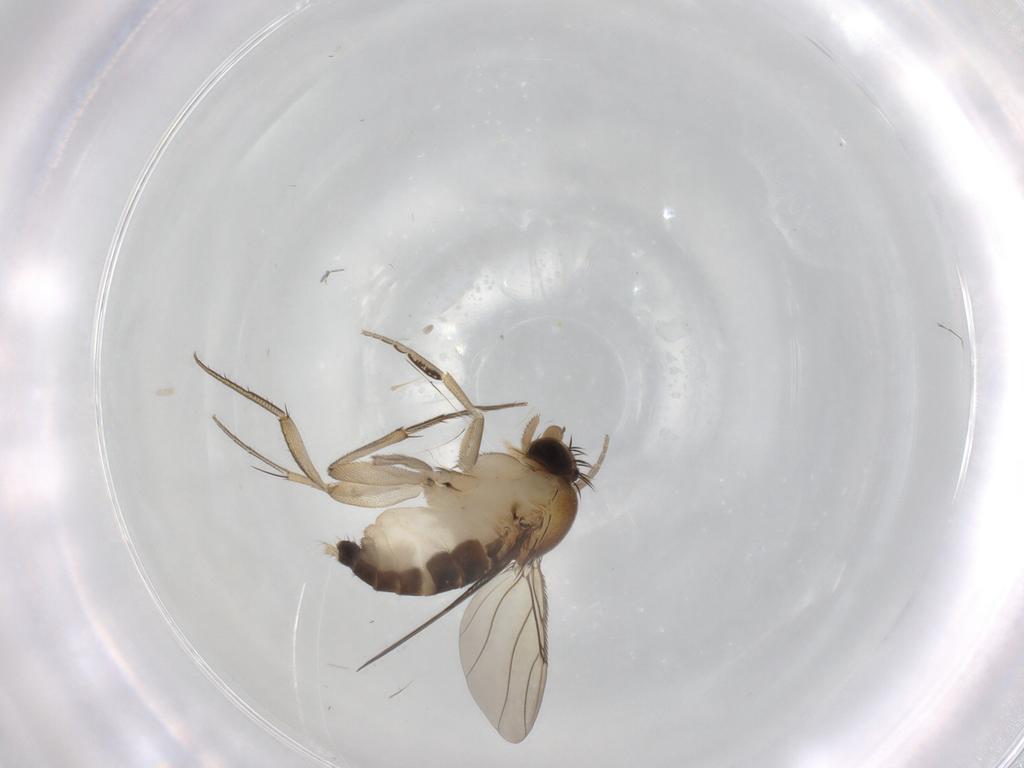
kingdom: Animalia
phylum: Arthropoda
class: Insecta
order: Diptera
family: Phoridae
